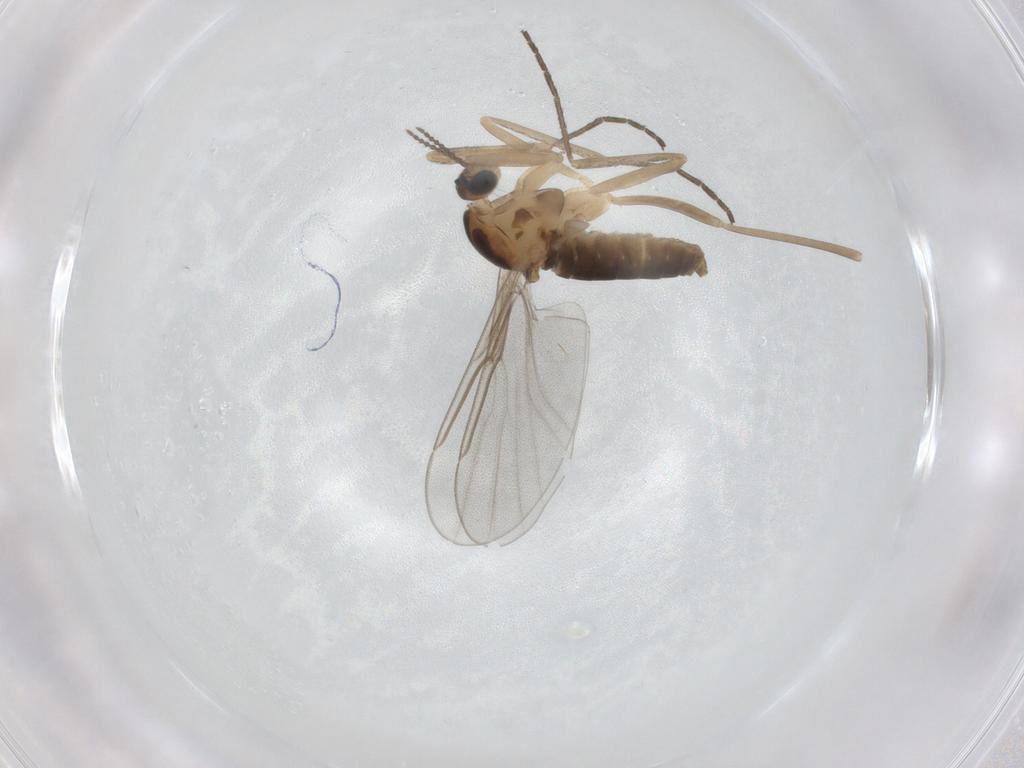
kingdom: Animalia
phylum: Arthropoda
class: Insecta
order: Diptera
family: Cecidomyiidae
